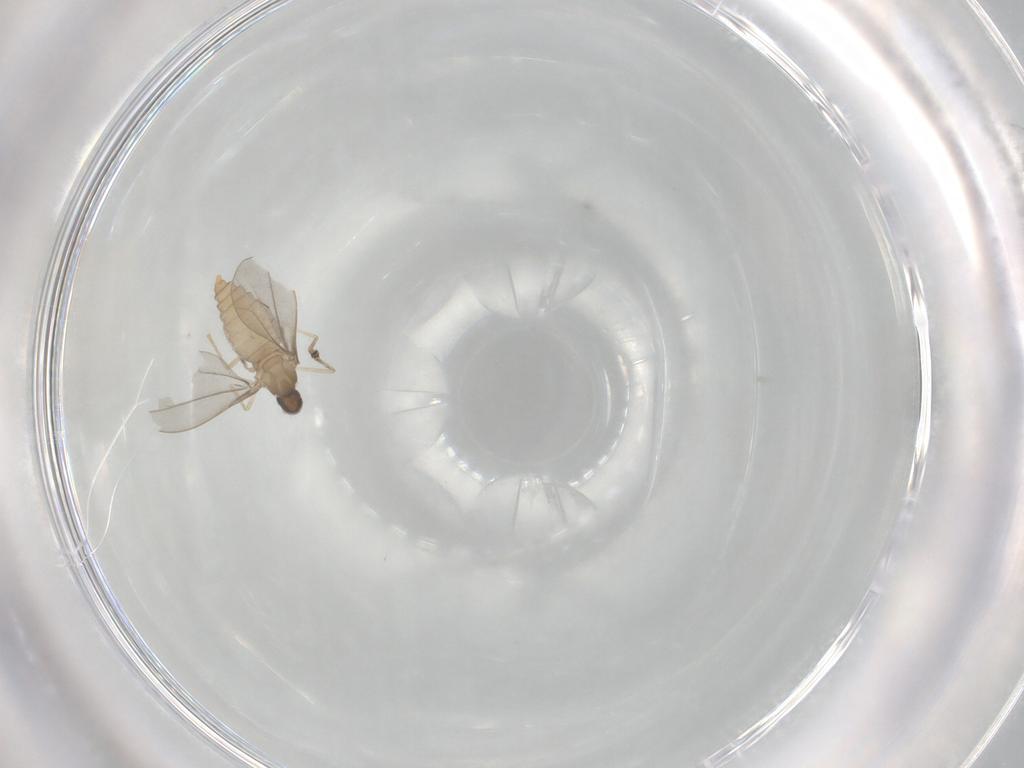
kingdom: Animalia
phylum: Arthropoda
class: Insecta
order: Diptera
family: Cecidomyiidae
